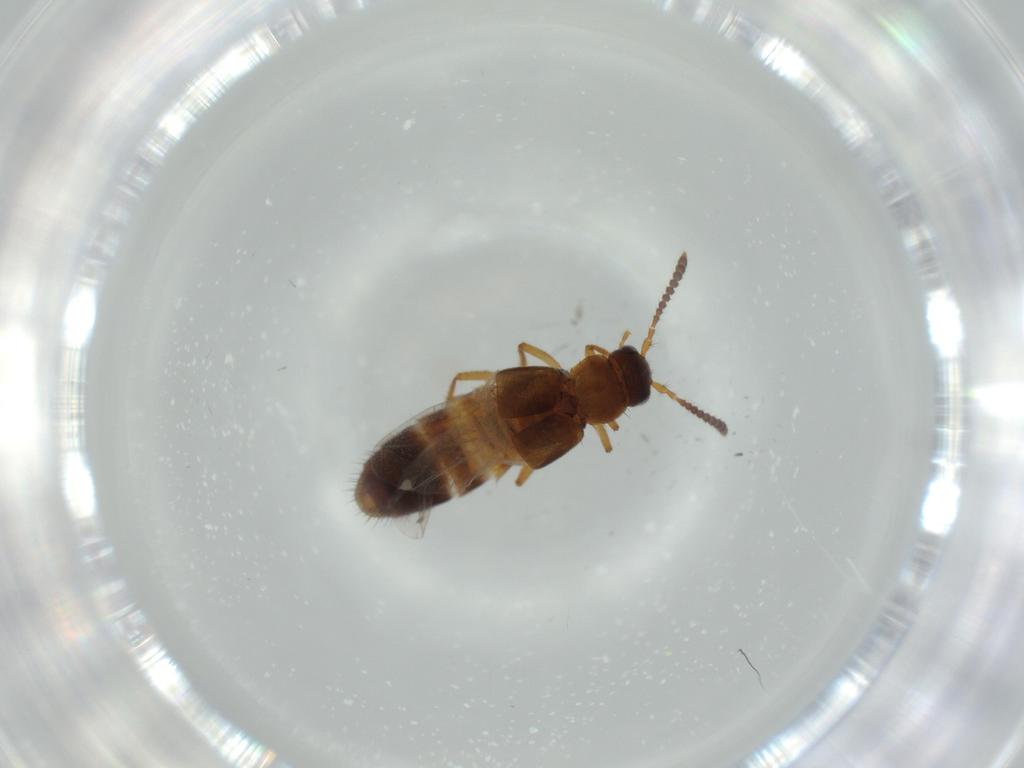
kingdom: Animalia
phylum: Arthropoda
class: Insecta
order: Coleoptera
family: Staphylinidae
